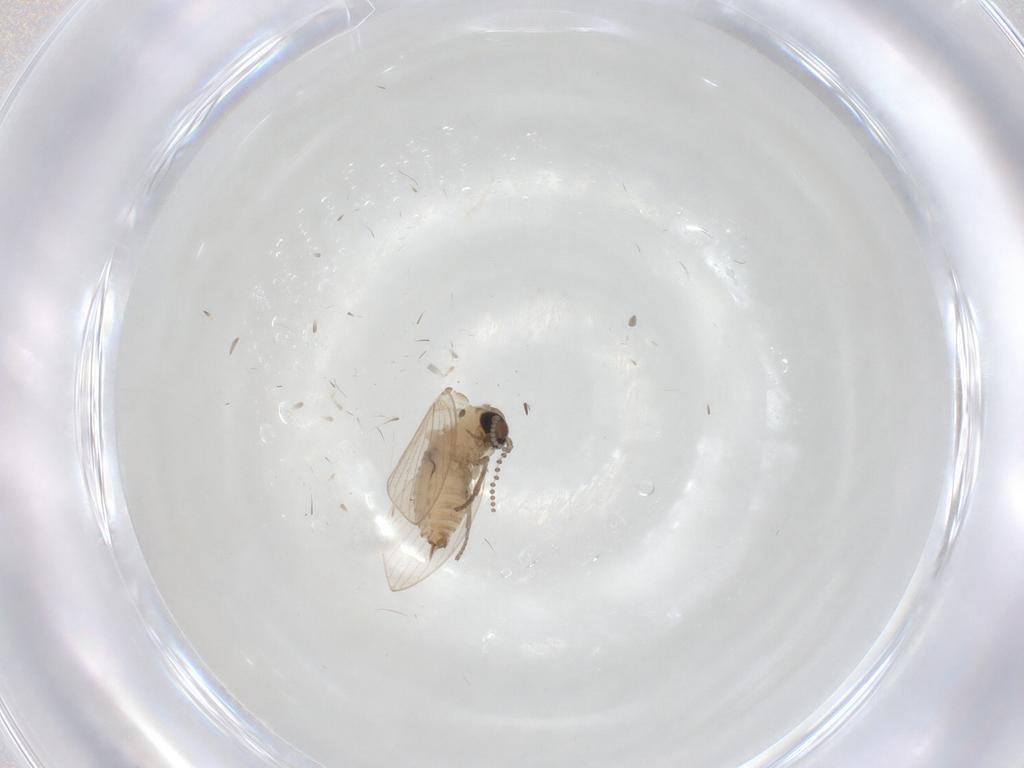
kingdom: Animalia
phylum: Arthropoda
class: Insecta
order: Diptera
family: Psychodidae
